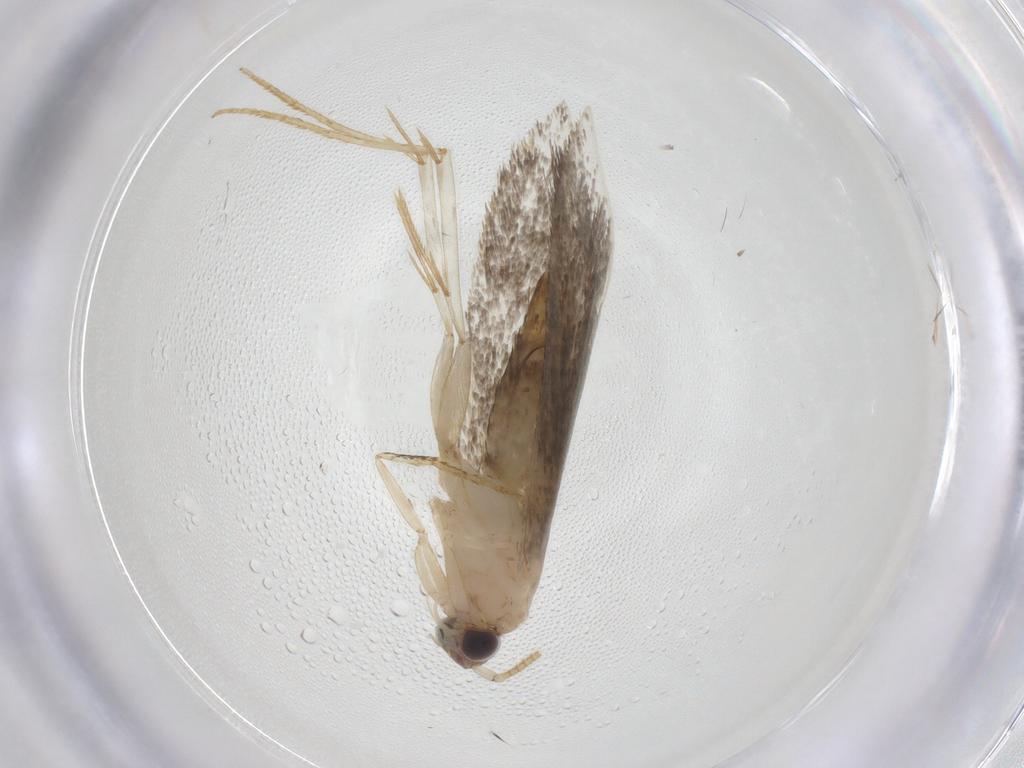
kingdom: Animalia
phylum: Arthropoda
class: Insecta
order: Lepidoptera
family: Tineidae
